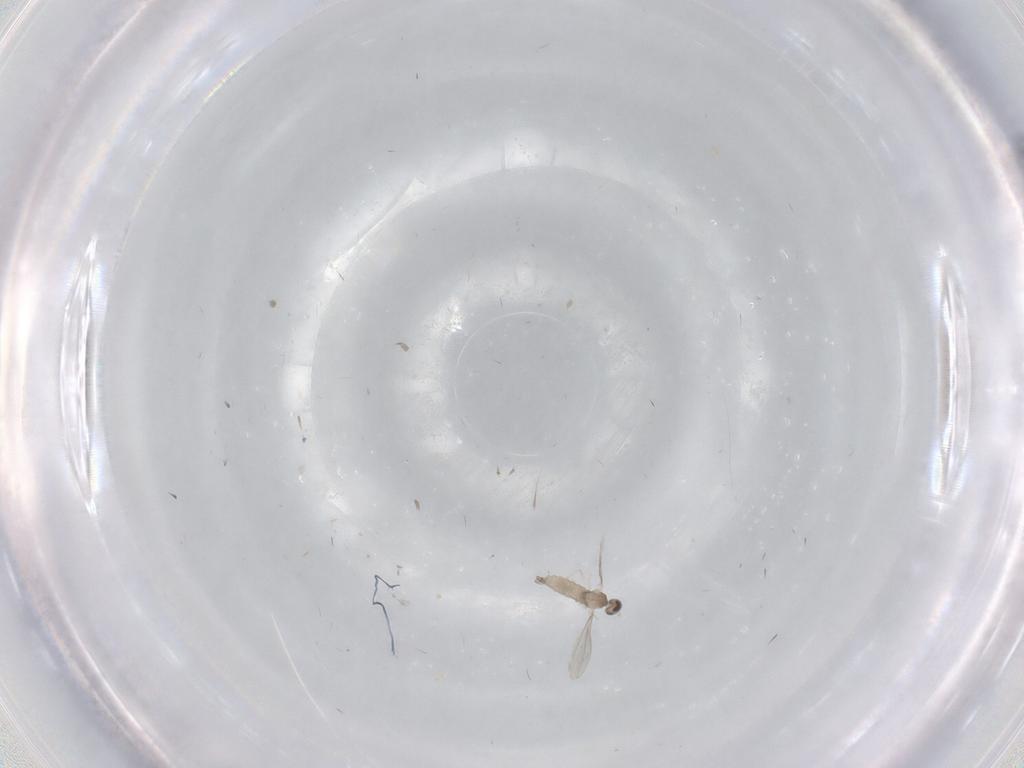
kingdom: Animalia
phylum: Arthropoda
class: Insecta
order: Diptera
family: Cecidomyiidae
